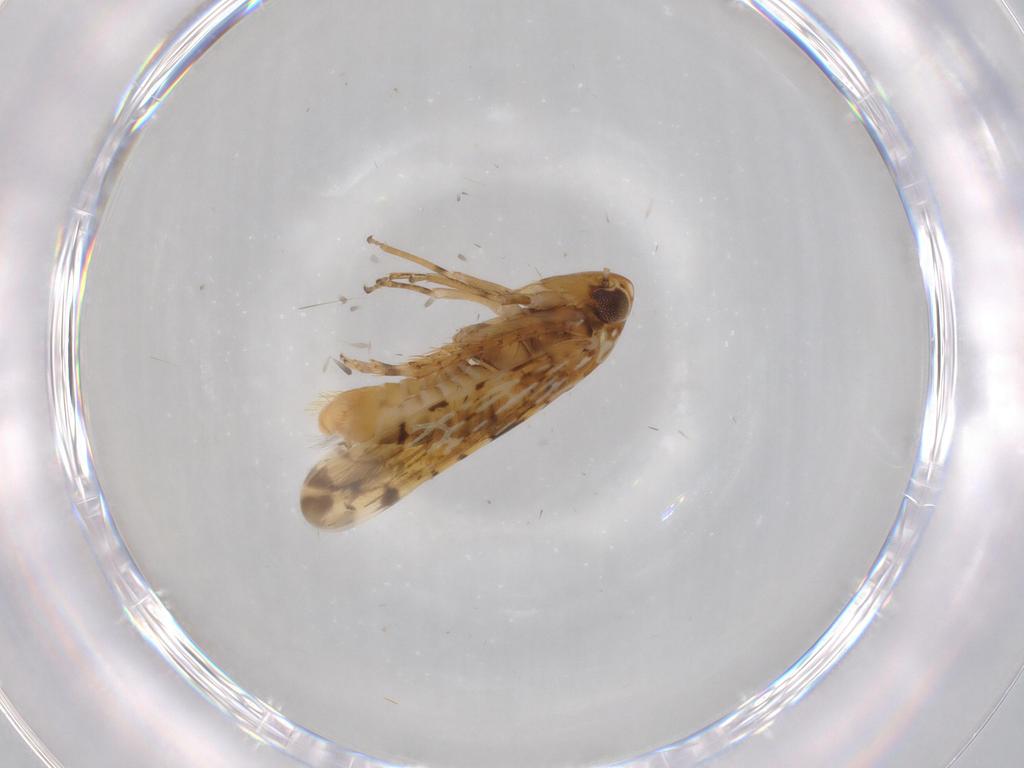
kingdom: Animalia
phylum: Arthropoda
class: Insecta
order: Hemiptera
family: Cicadellidae
